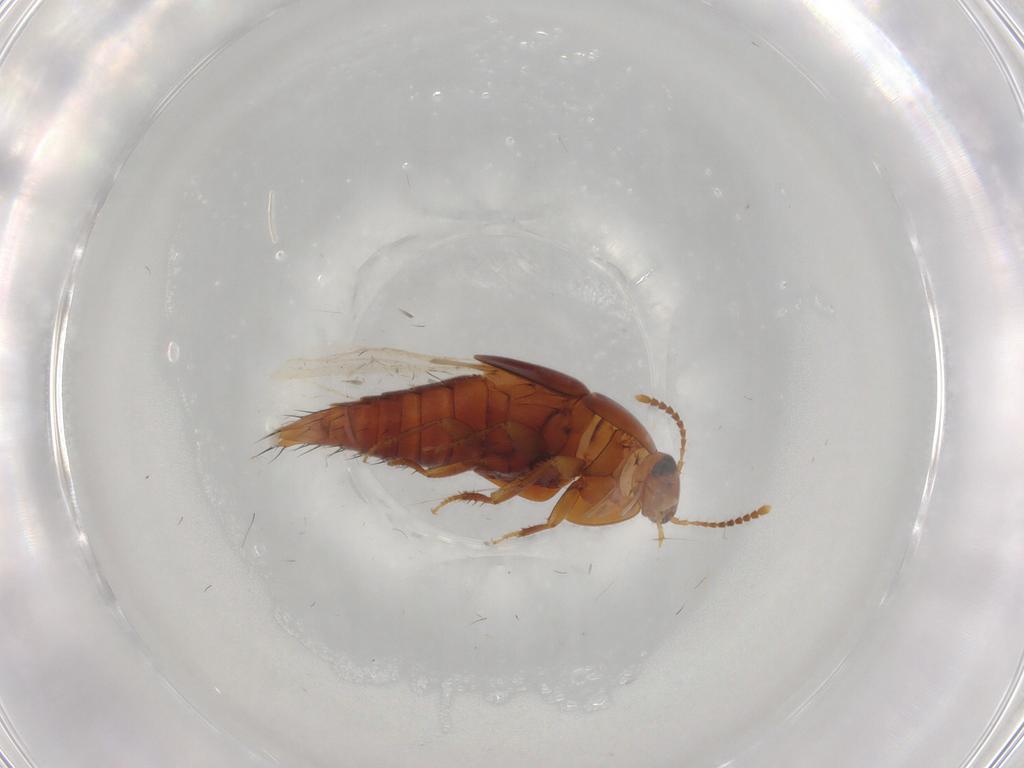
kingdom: Animalia
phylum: Arthropoda
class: Insecta
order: Coleoptera
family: Staphylinidae
